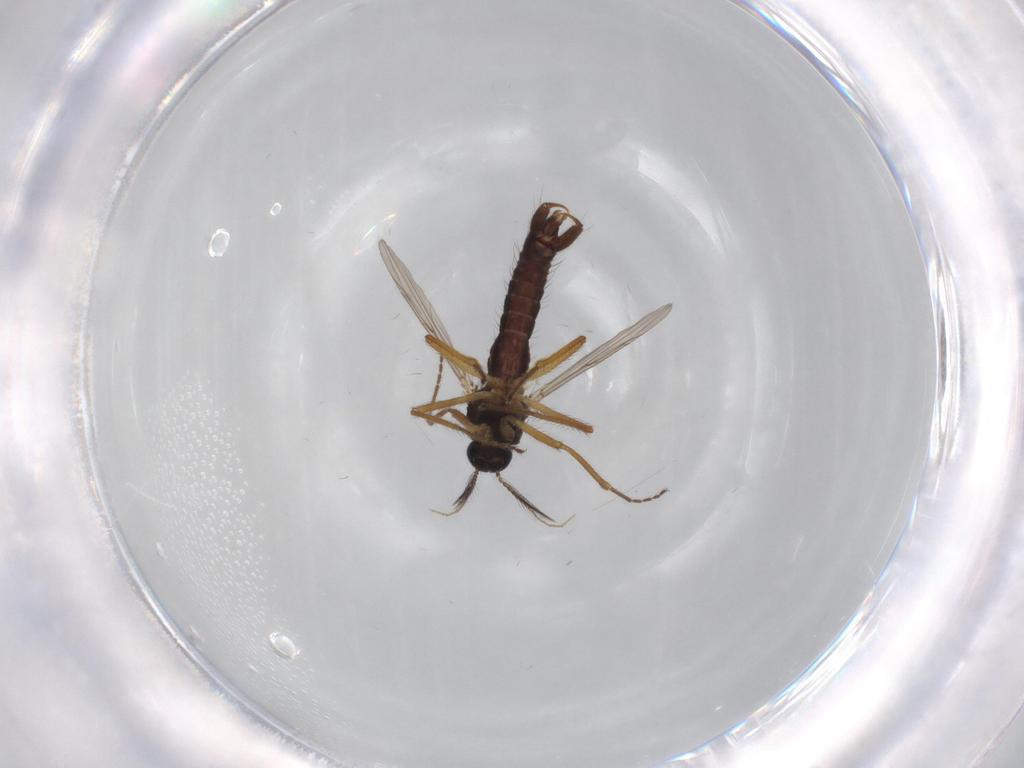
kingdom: Animalia
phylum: Arthropoda
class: Insecta
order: Diptera
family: Ceratopogonidae
